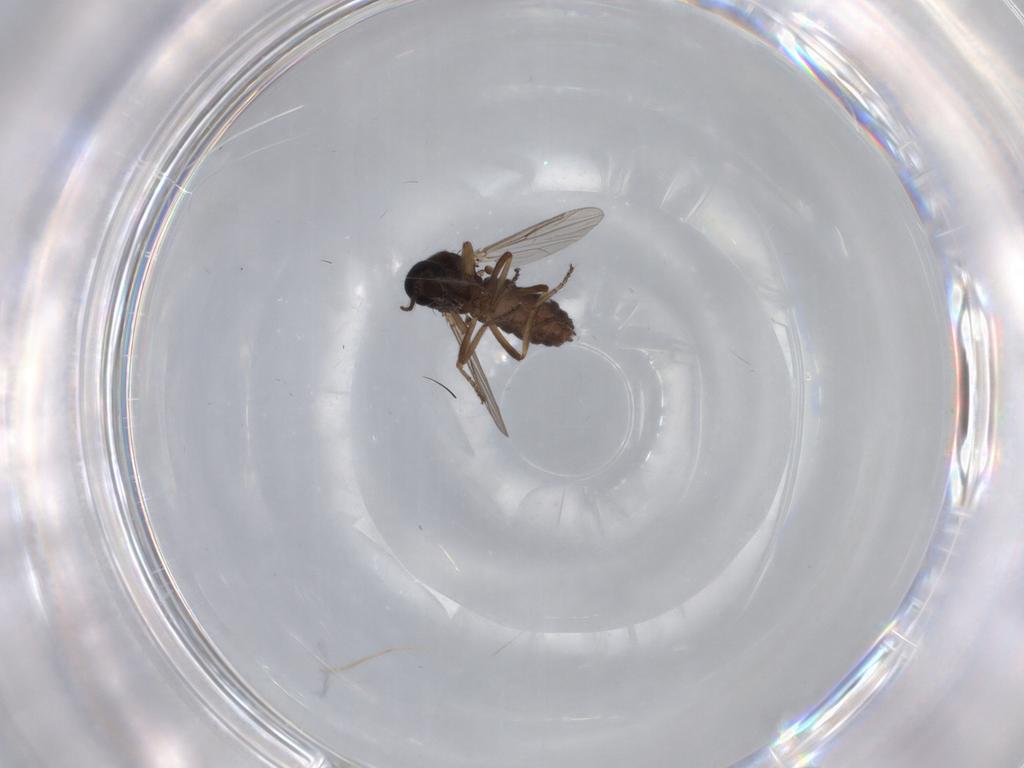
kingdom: Animalia
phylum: Arthropoda
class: Insecta
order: Diptera
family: Ceratopogonidae
